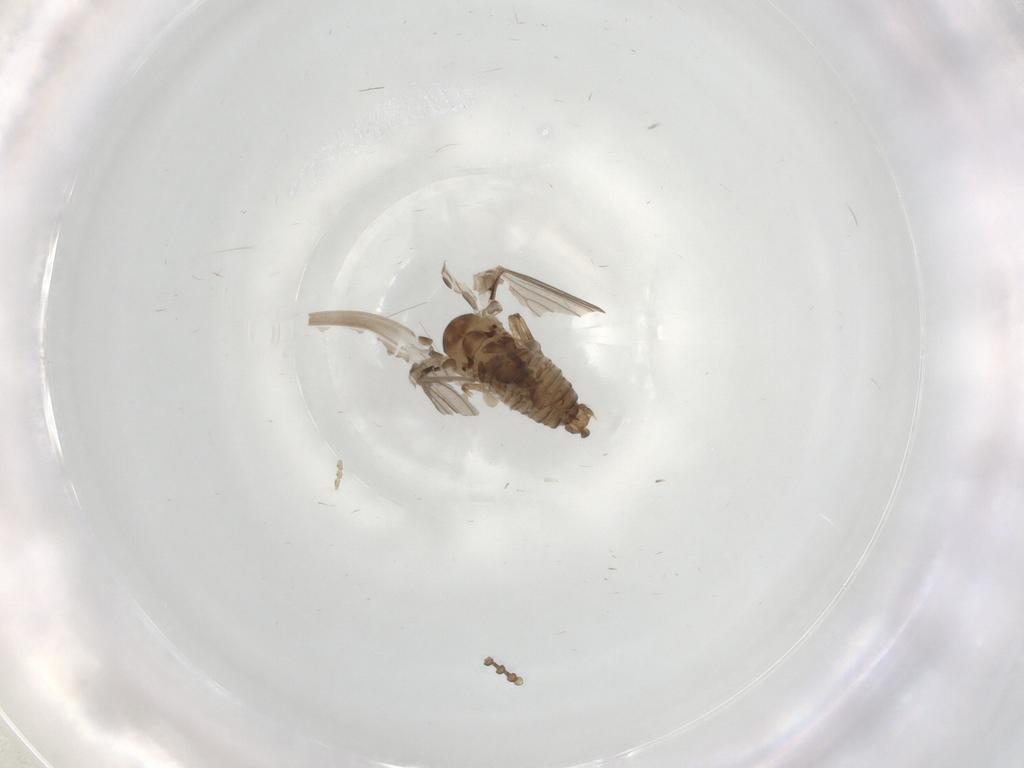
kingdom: Animalia
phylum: Arthropoda
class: Insecta
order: Diptera
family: Psychodidae
